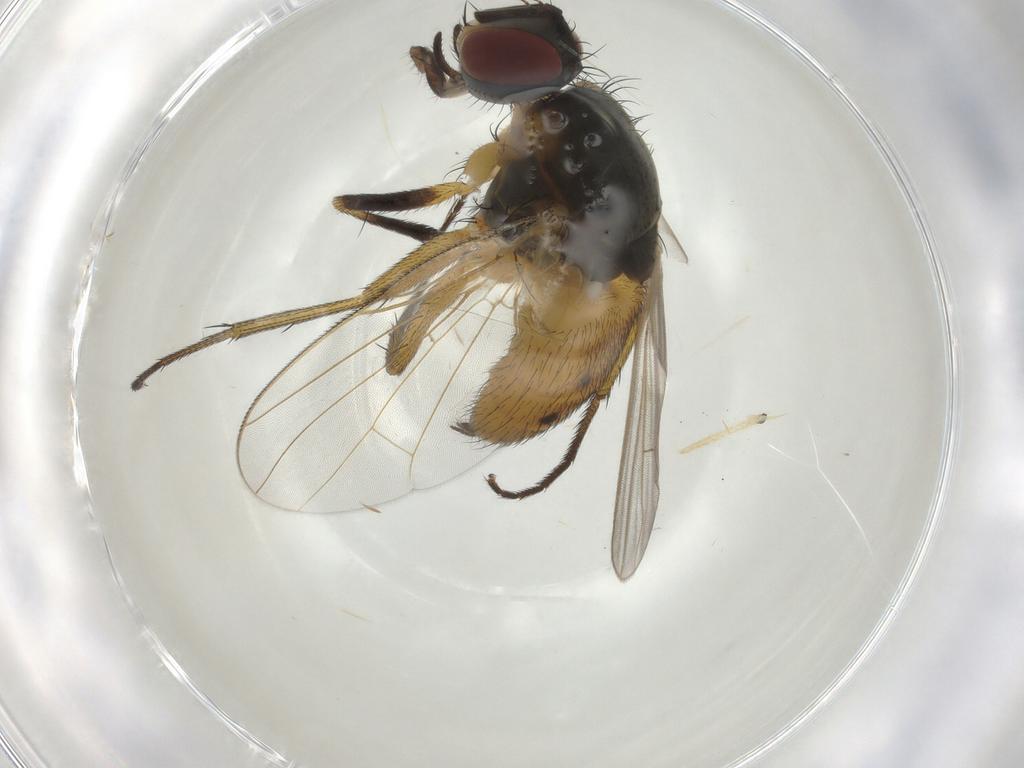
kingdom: Animalia
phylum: Arthropoda
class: Insecta
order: Diptera
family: Muscidae
